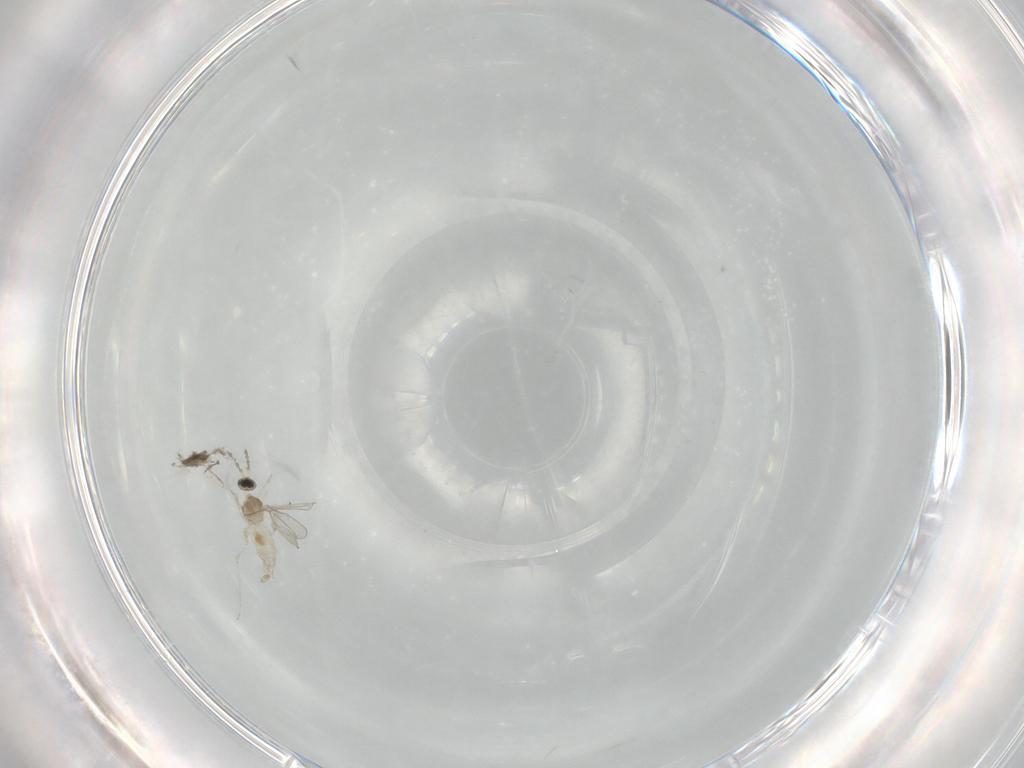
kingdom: Animalia
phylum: Arthropoda
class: Insecta
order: Diptera
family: Cecidomyiidae
